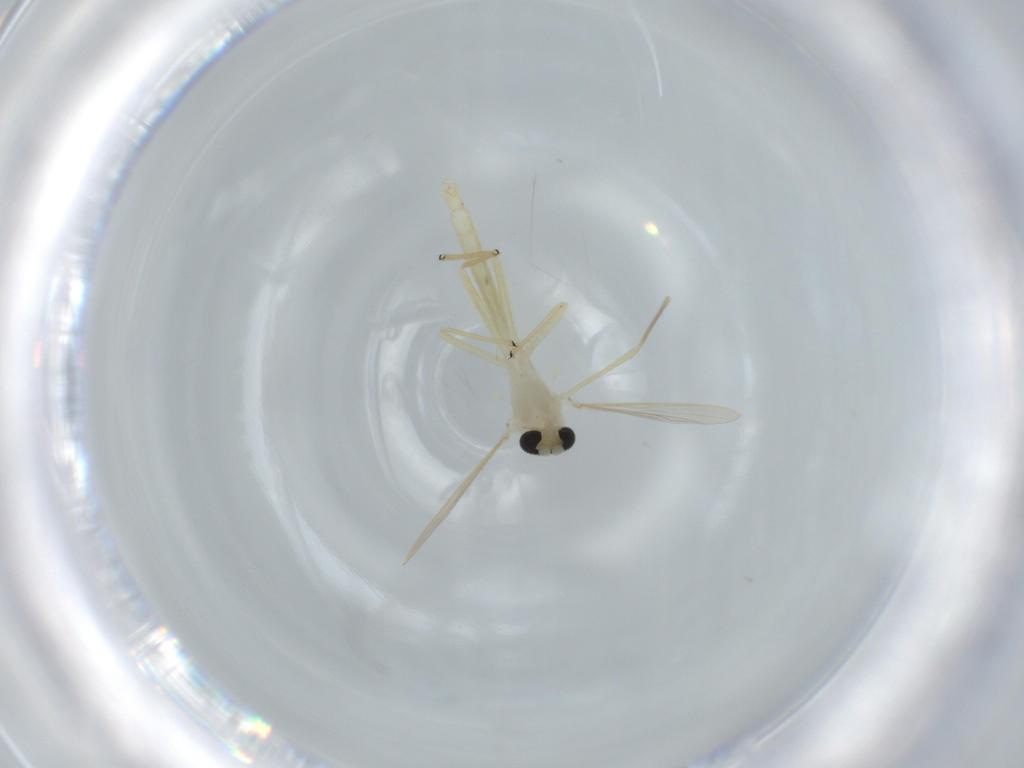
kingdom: Animalia
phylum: Arthropoda
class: Insecta
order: Diptera
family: Chironomidae
